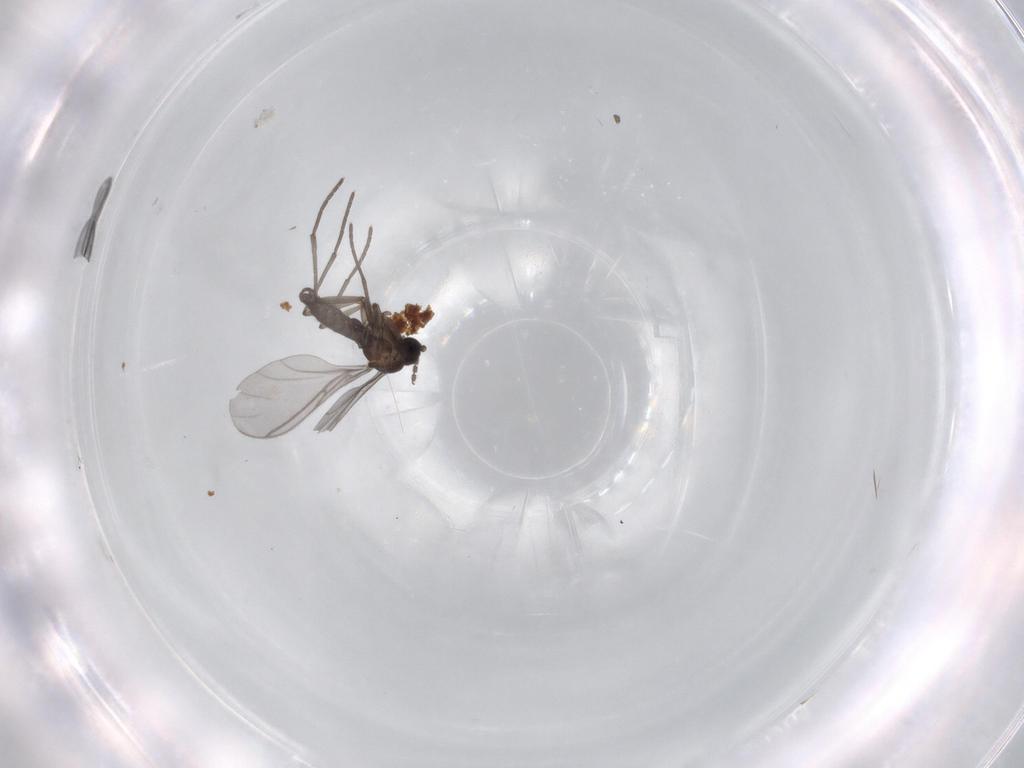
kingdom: Animalia
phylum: Arthropoda
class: Insecta
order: Diptera
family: Sciaridae
